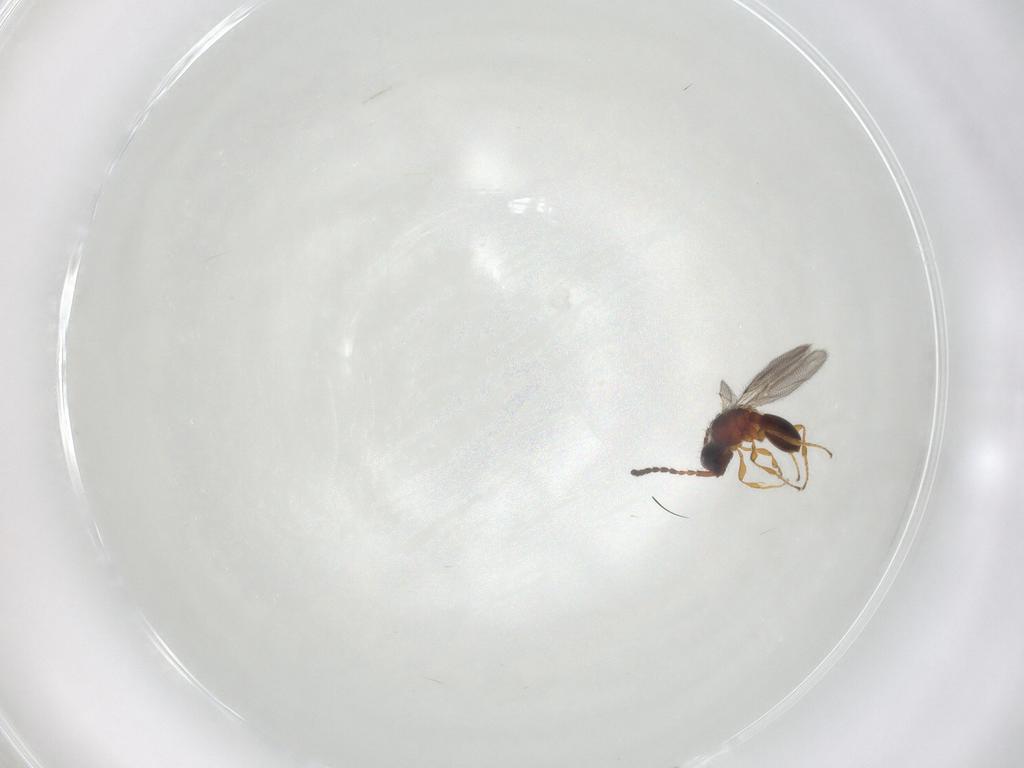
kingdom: Animalia
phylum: Arthropoda
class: Insecta
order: Hymenoptera
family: Diapriidae
